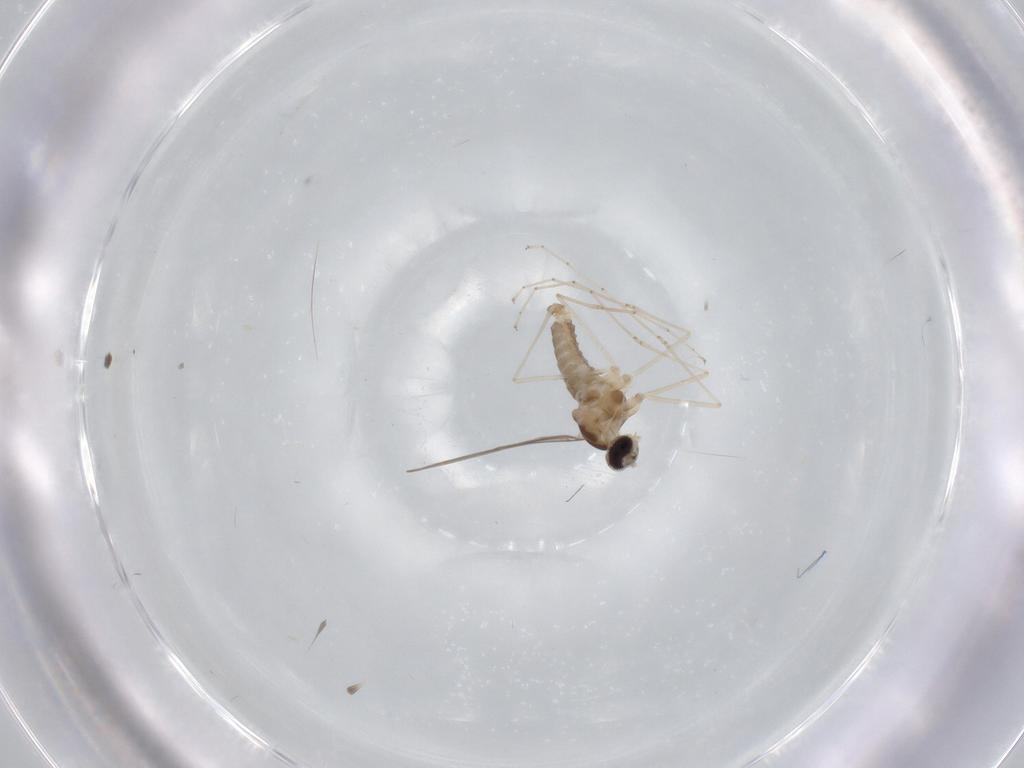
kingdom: Animalia
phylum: Arthropoda
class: Insecta
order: Diptera
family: Cecidomyiidae
